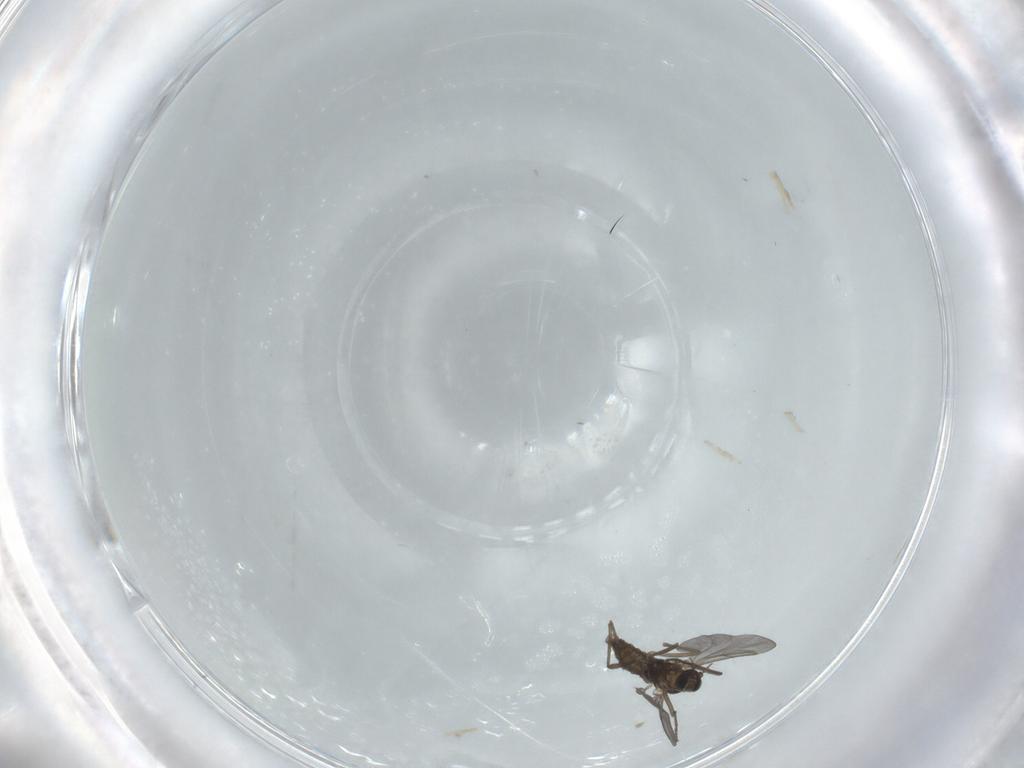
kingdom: Animalia
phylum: Arthropoda
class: Insecta
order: Diptera
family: Cecidomyiidae
